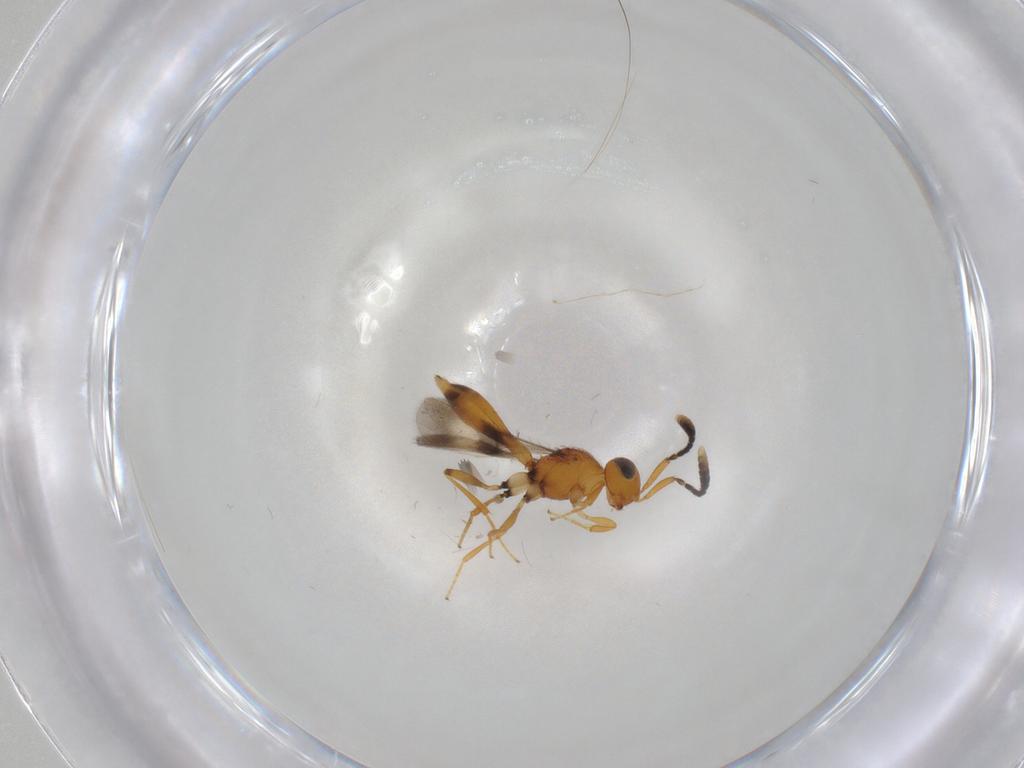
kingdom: Animalia
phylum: Arthropoda
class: Insecta
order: Hymenoptera
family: Scelionidae
